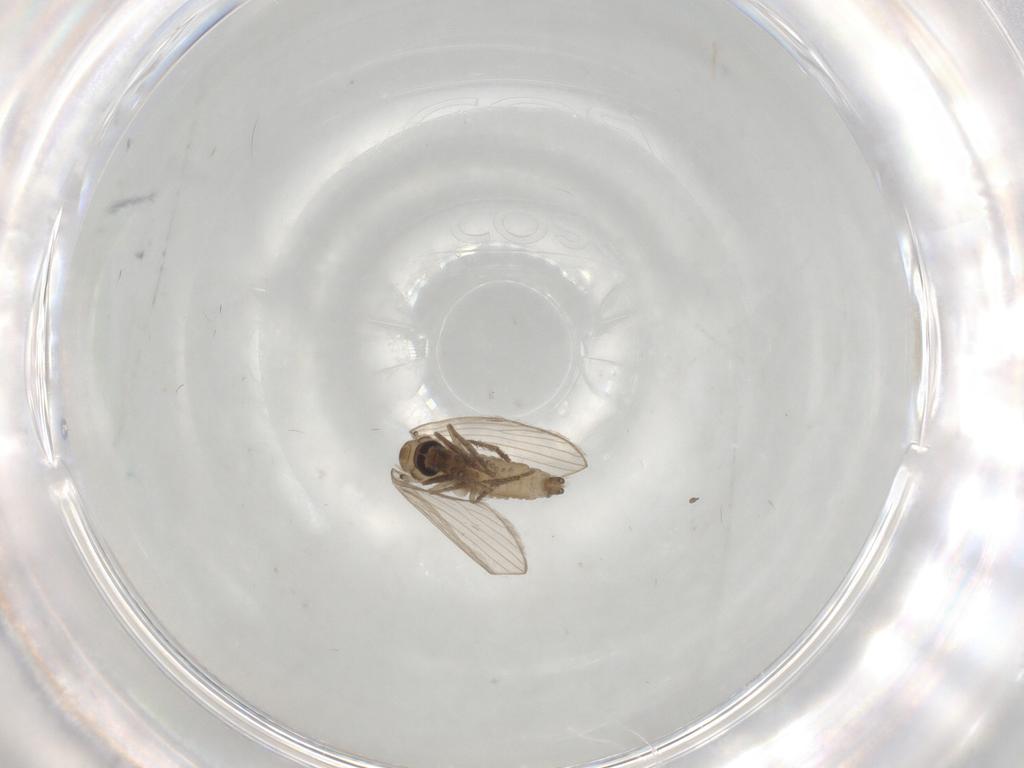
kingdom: Animalia
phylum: Arthropoda
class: Insecta
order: Diptera
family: Psychodidae
